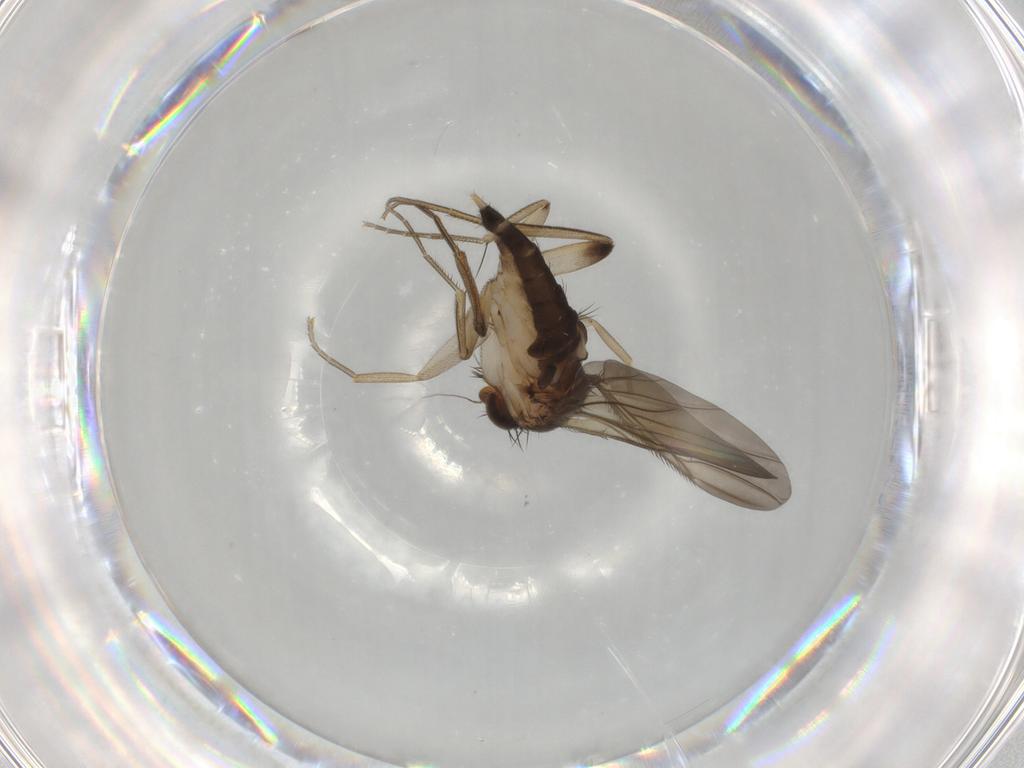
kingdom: Animalia
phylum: Arthropoda
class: Insecta
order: Diptera
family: Phoridae
